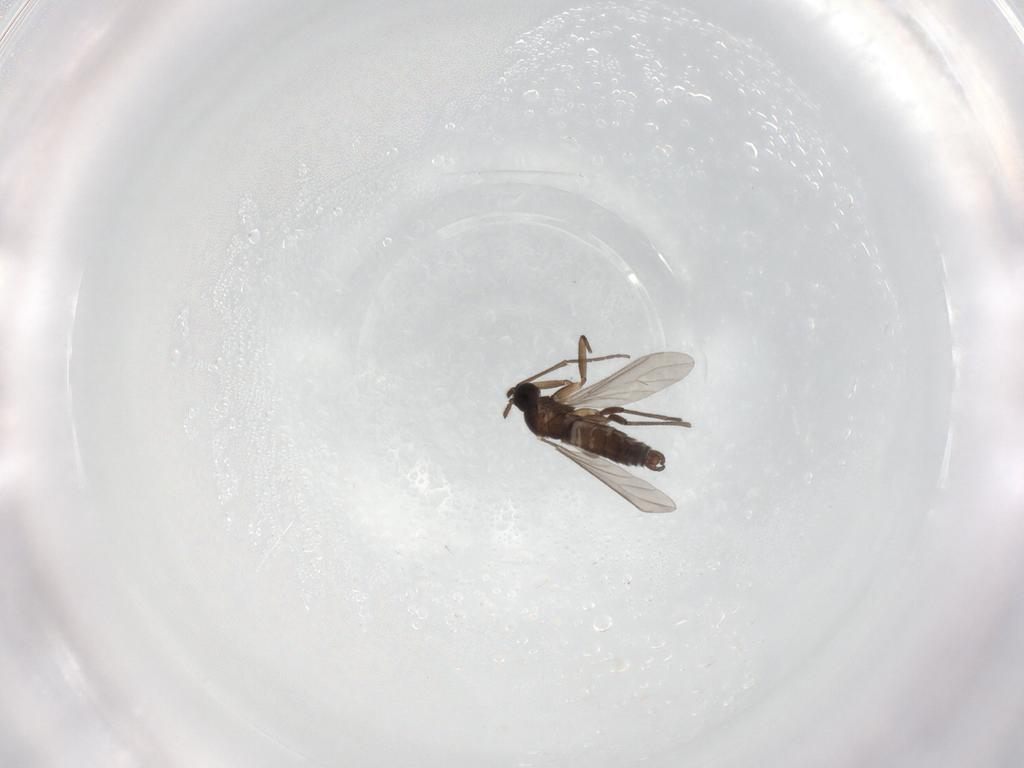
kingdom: Animalia
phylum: Arthropoda
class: Insecta
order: Diptera
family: Sciaridae
